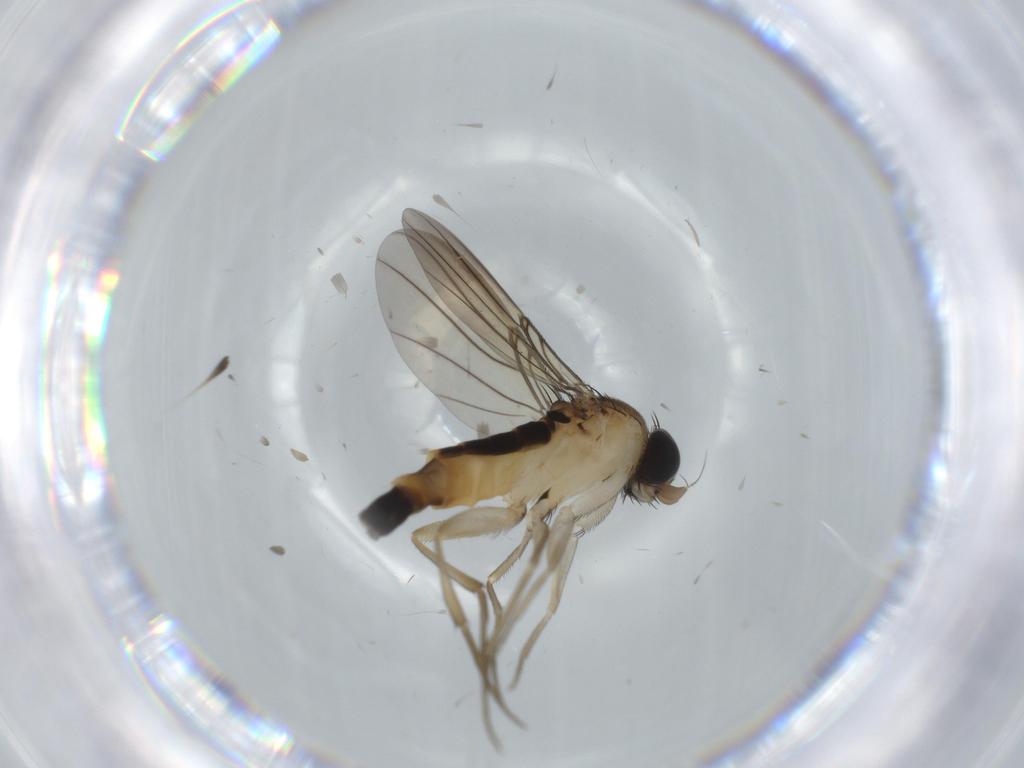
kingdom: Animalia
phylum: Arthropoda
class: Insecta
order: Diptera
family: Phoridae
